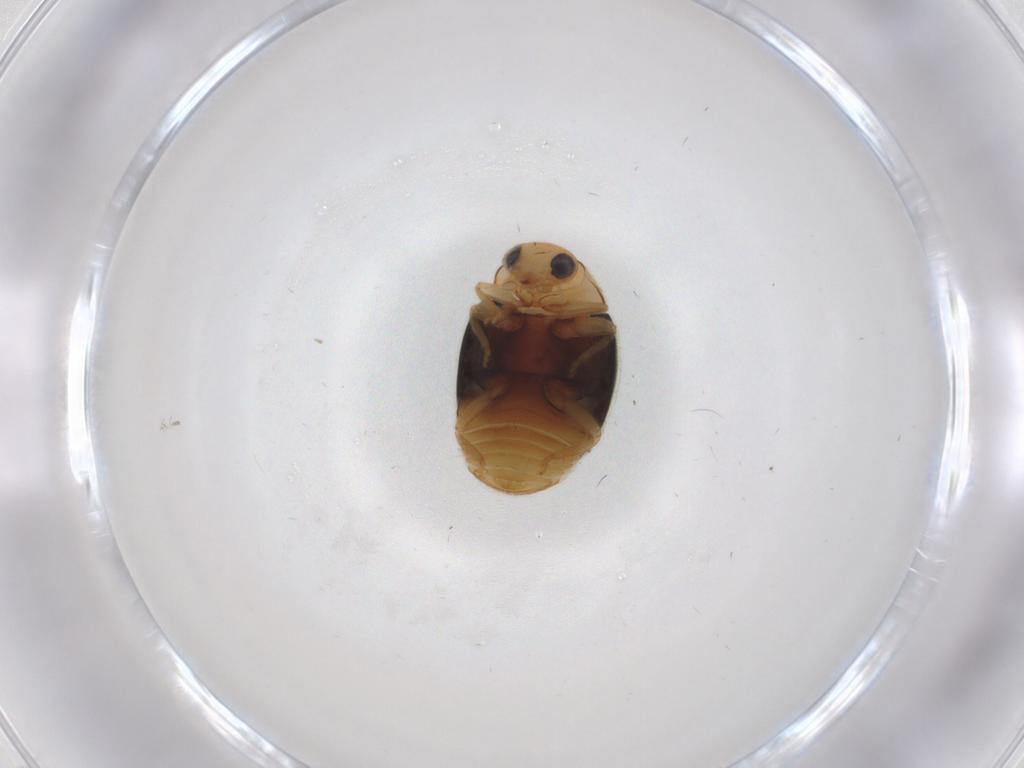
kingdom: Animalia
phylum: Arthropoda
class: Insecta
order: Coleoptera
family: Coccinellidae
